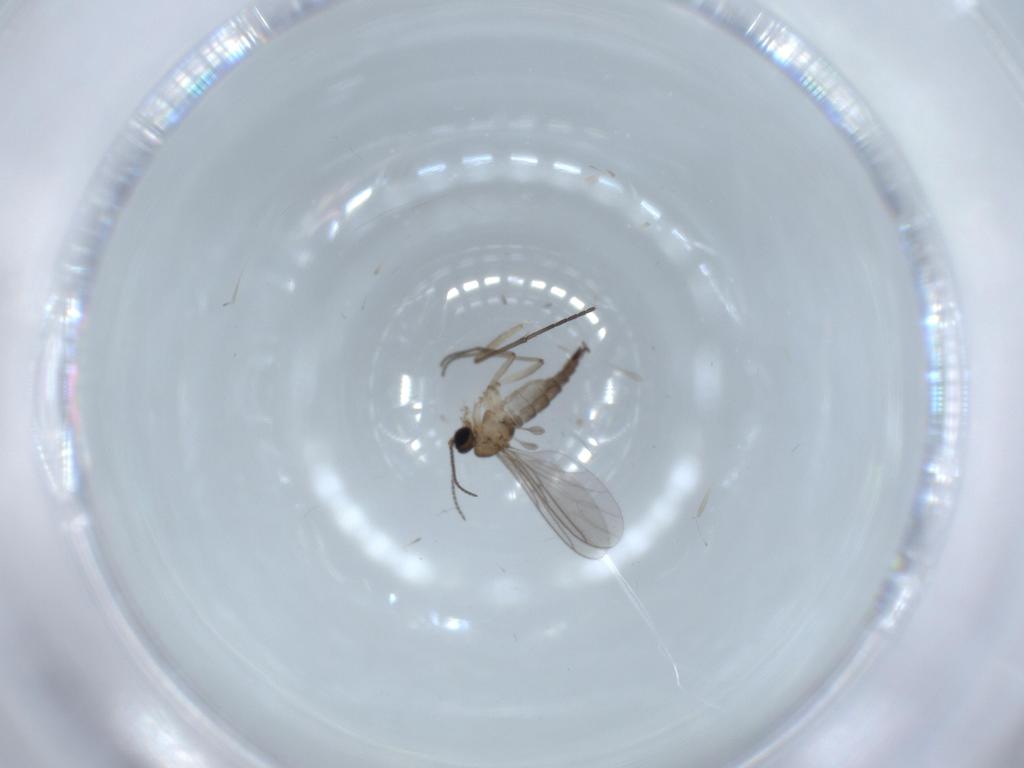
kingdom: Animalia
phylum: Arthropoda
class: Insecta
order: Diptera
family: Sciaridae
